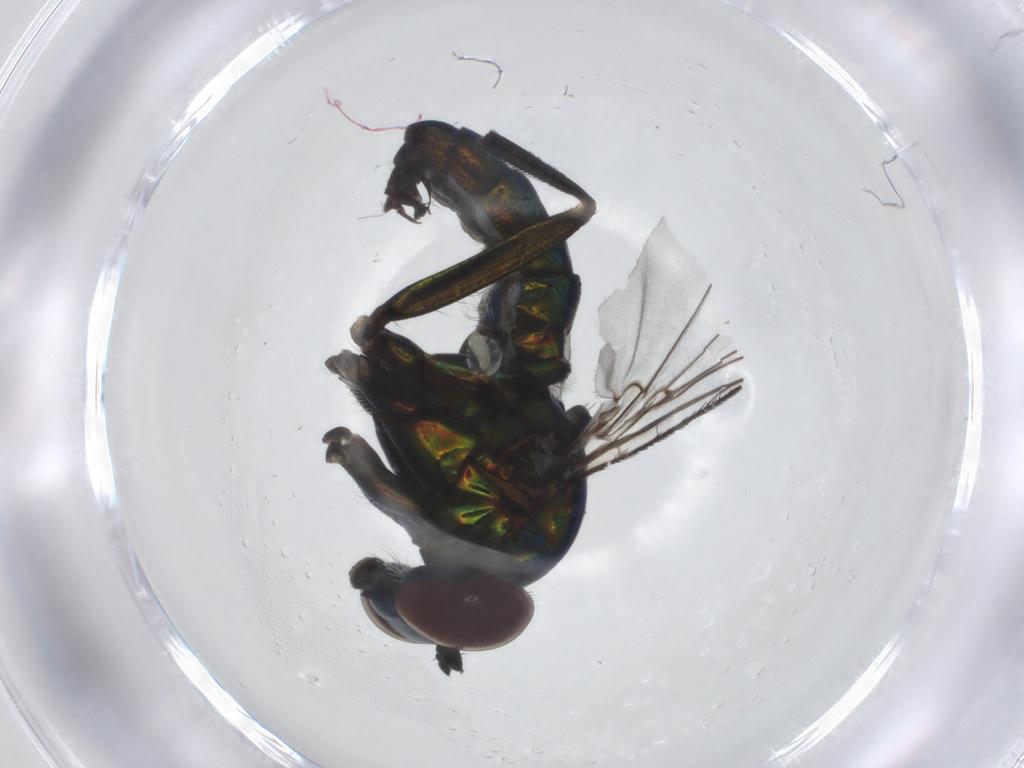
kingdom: Animalia
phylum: Arthropoda
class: Insecta
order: Diptera
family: Dolichopodidae
